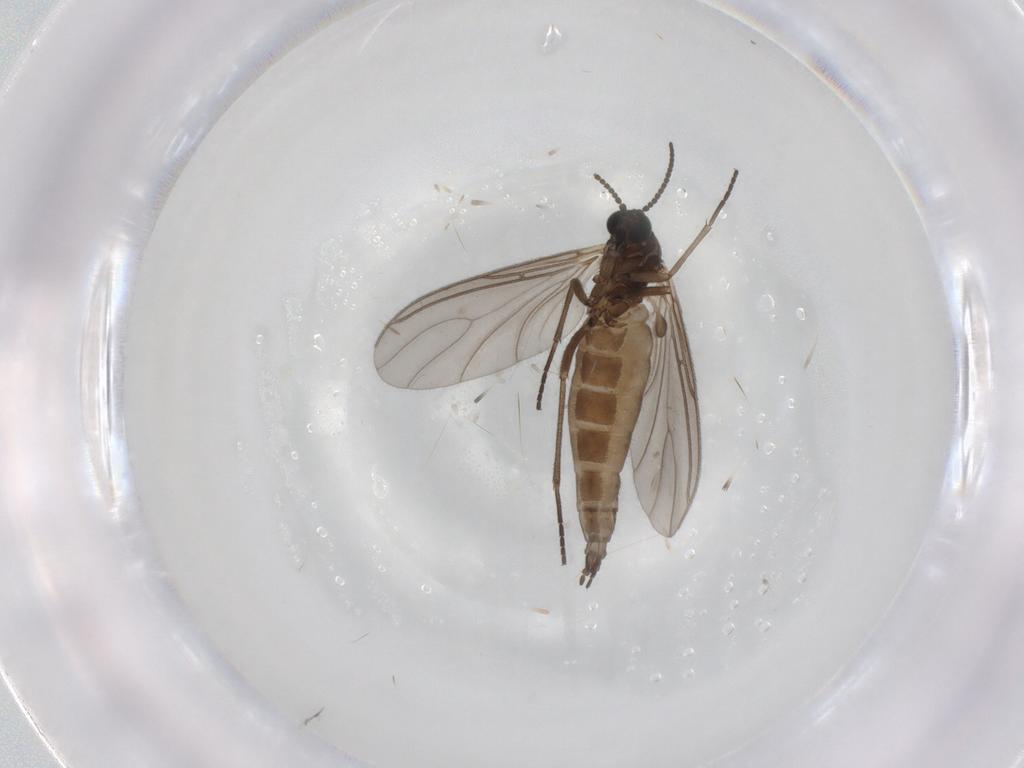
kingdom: Animalia
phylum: Arthropoda
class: Insecta
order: Diptera
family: Sciaridae
